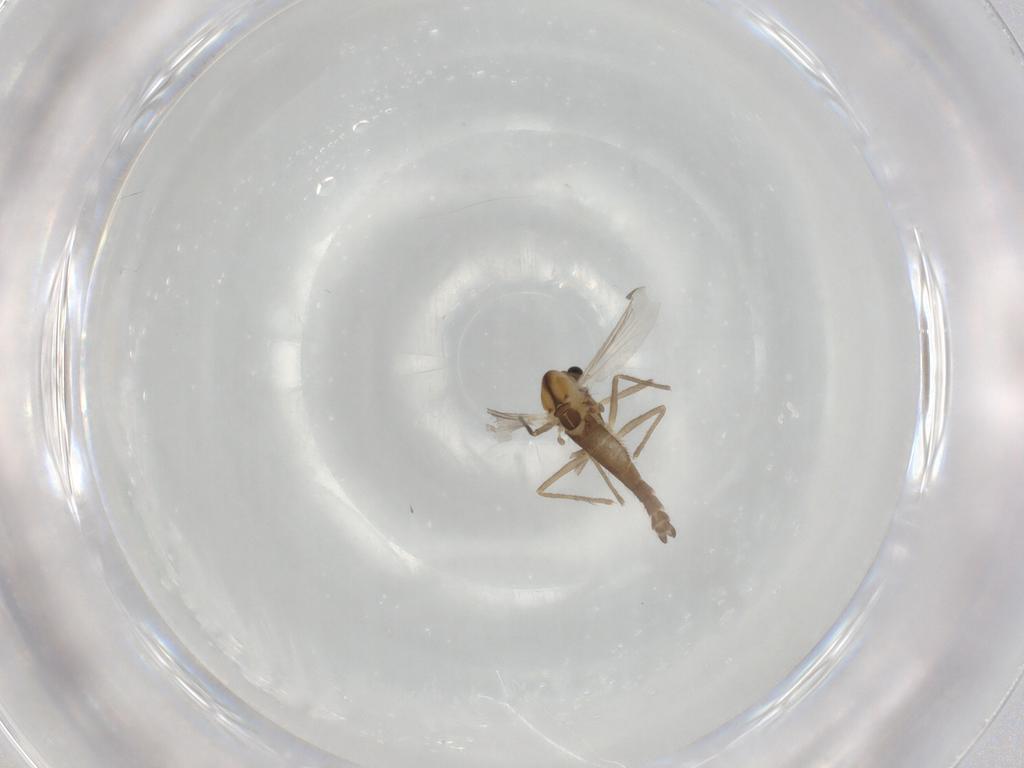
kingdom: Animalia
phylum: Arthropoda
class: Insecta
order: Diptera
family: Chironomidae
